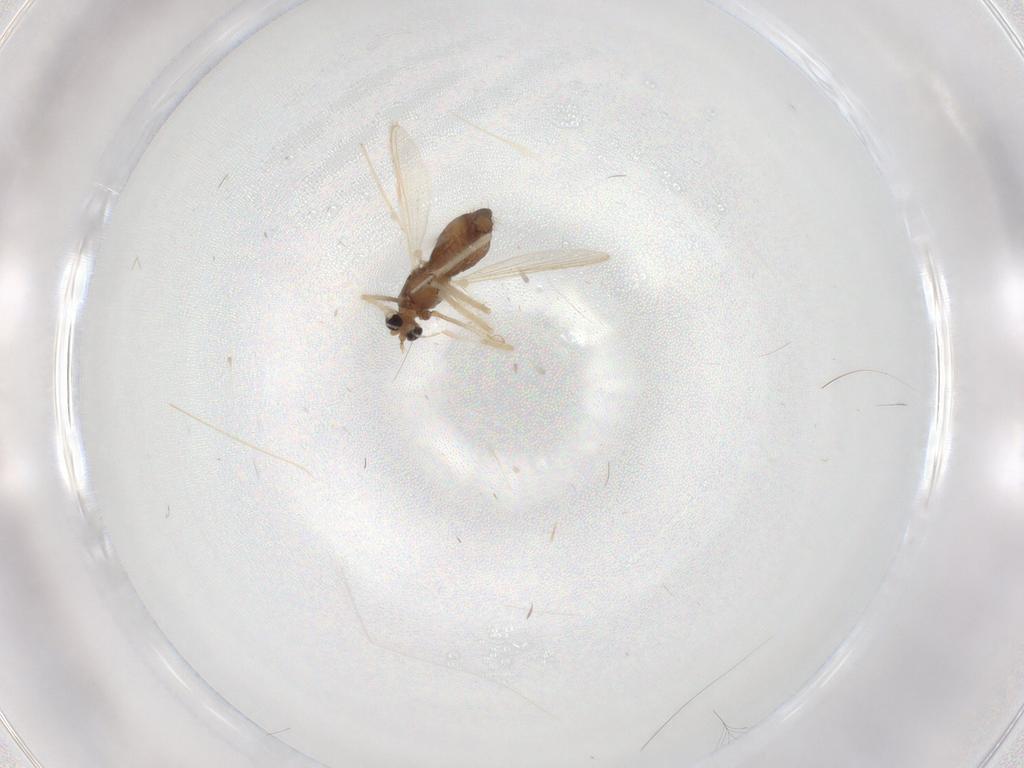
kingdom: Animalia
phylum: Arthropoda
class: Insecta
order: Diptera
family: Chironomidae
